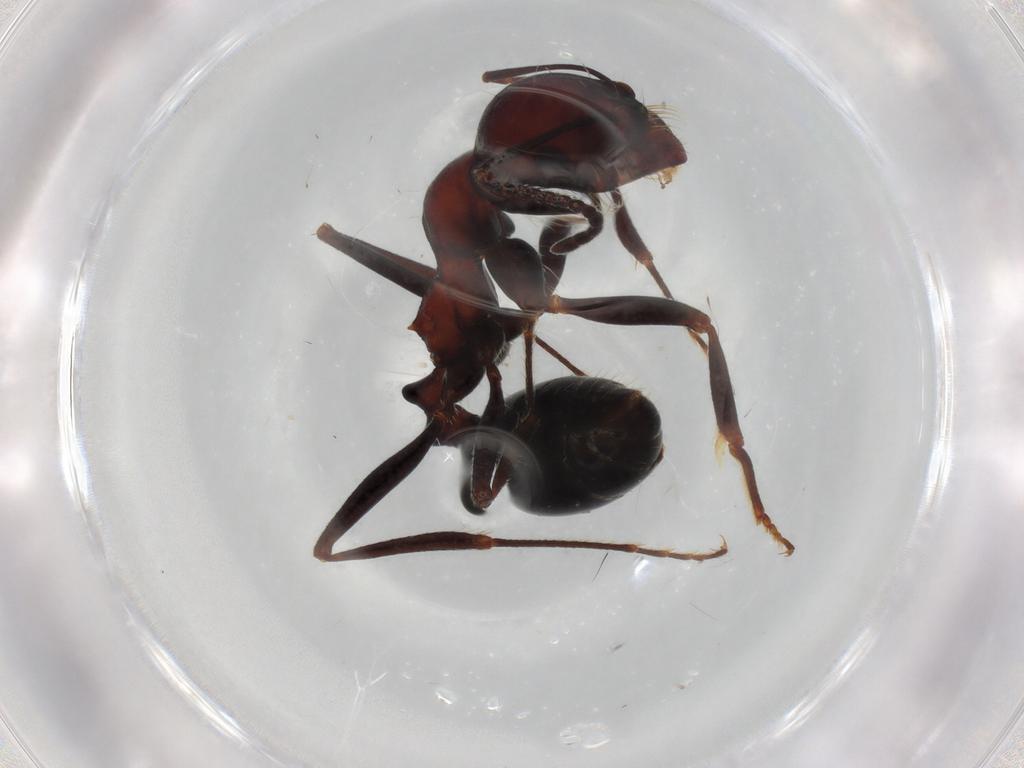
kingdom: Animalia
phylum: Arthropoda
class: Insecta
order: Hymenoptera
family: Formicidae
